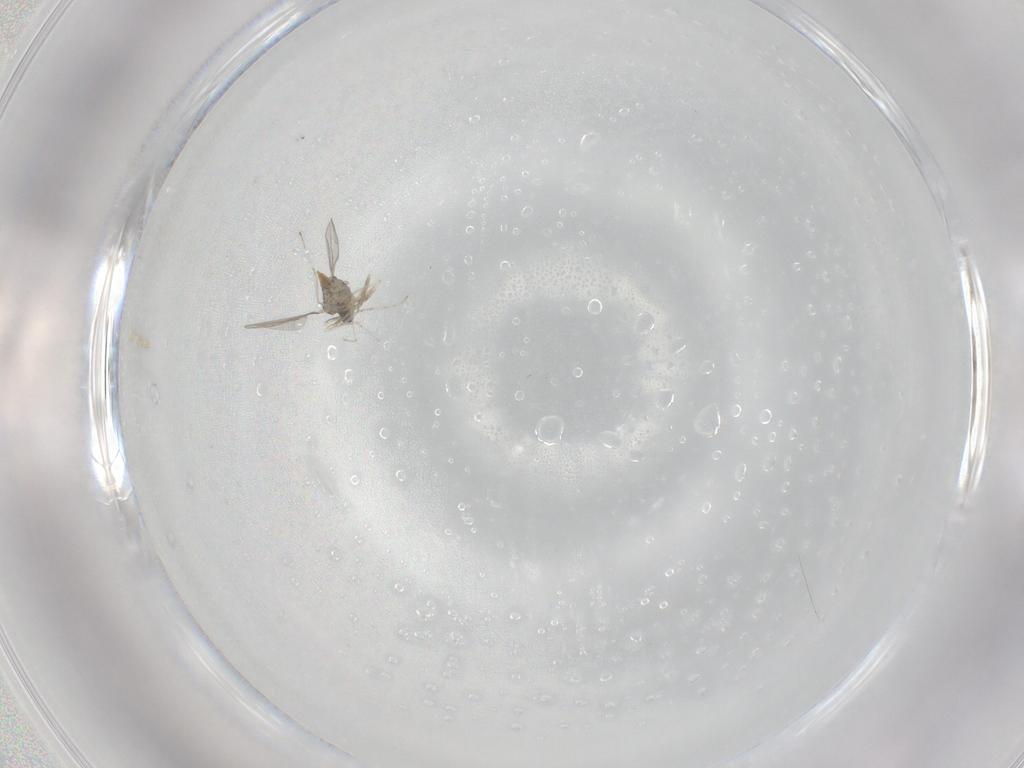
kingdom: Animalia
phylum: Arthropoda
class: Insecta
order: Diptera
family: Cecidomyiidae
